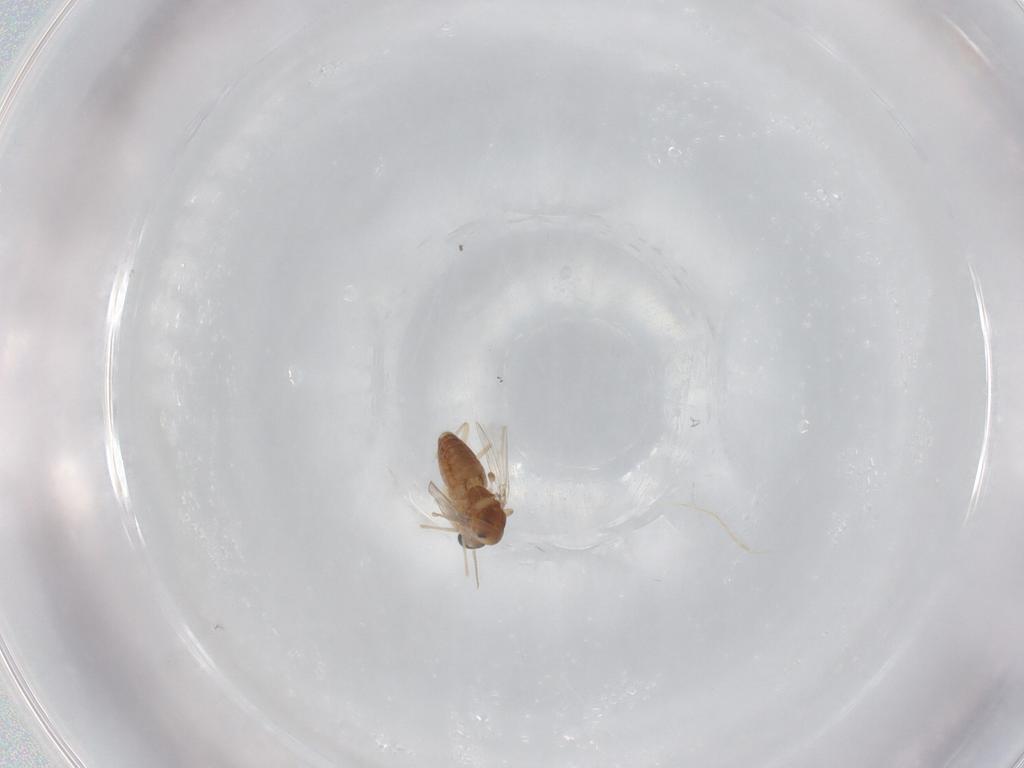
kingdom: Animalia
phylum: Arthropoda
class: Insecta
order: Diptera
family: Chironomidae
